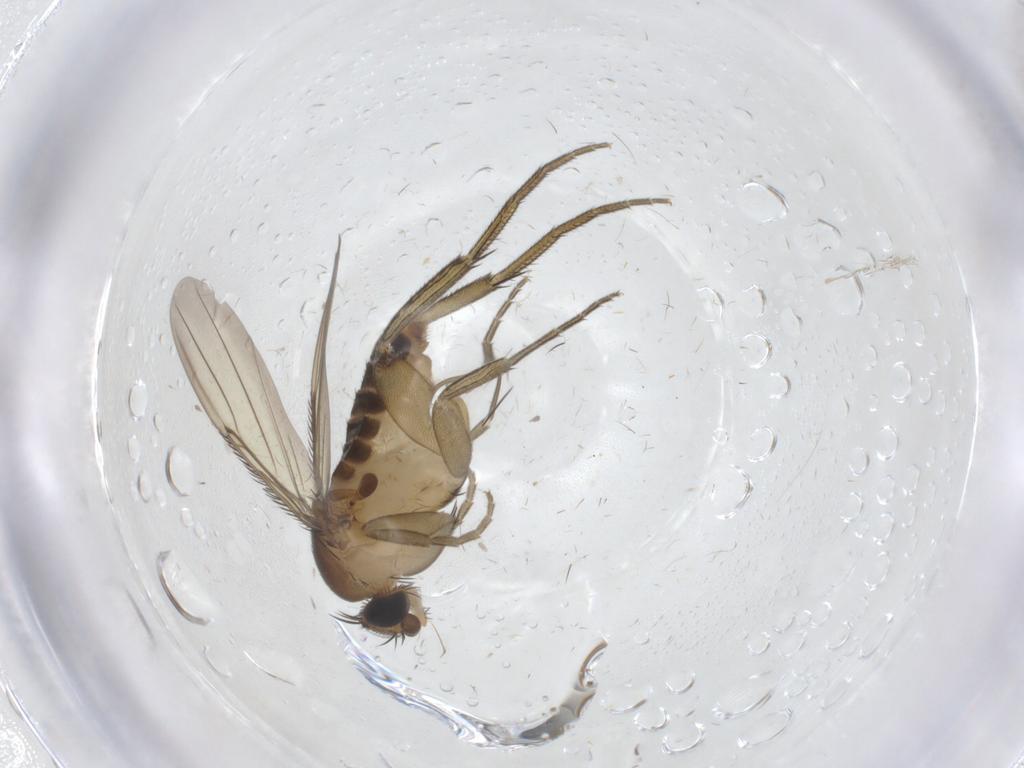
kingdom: Animalia
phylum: Arthropoda
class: Insecta
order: Diptera
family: Phoridae
